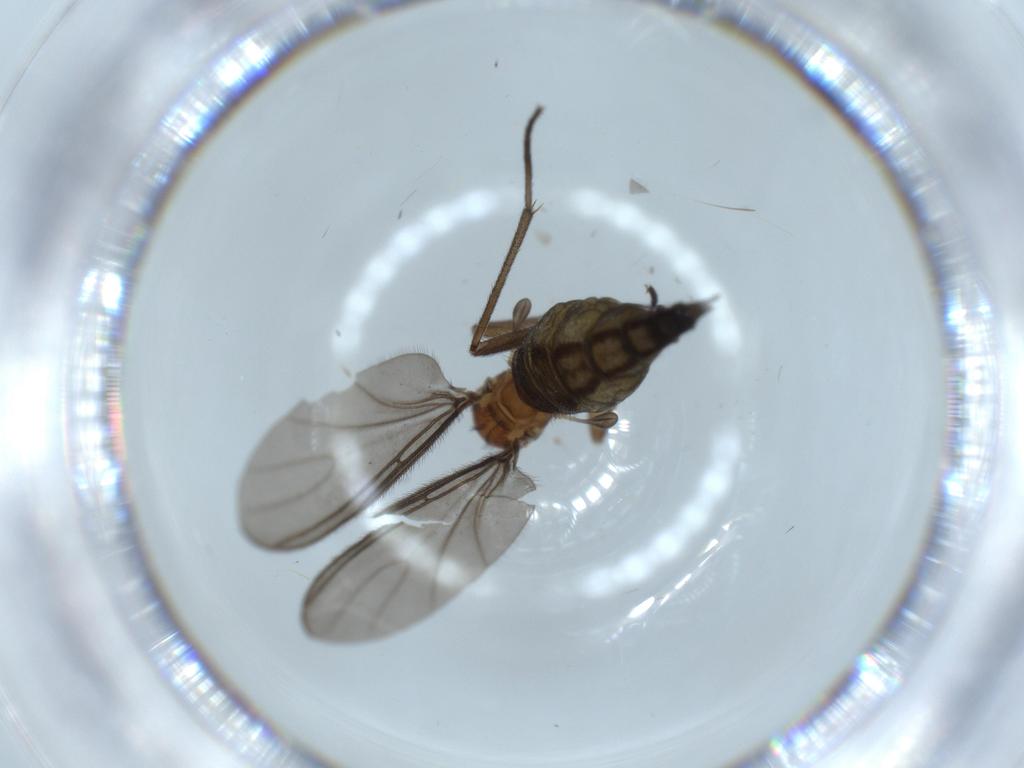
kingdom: Animalia
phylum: Arthropoda
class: Insecta
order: Diptera
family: Sciaridae
